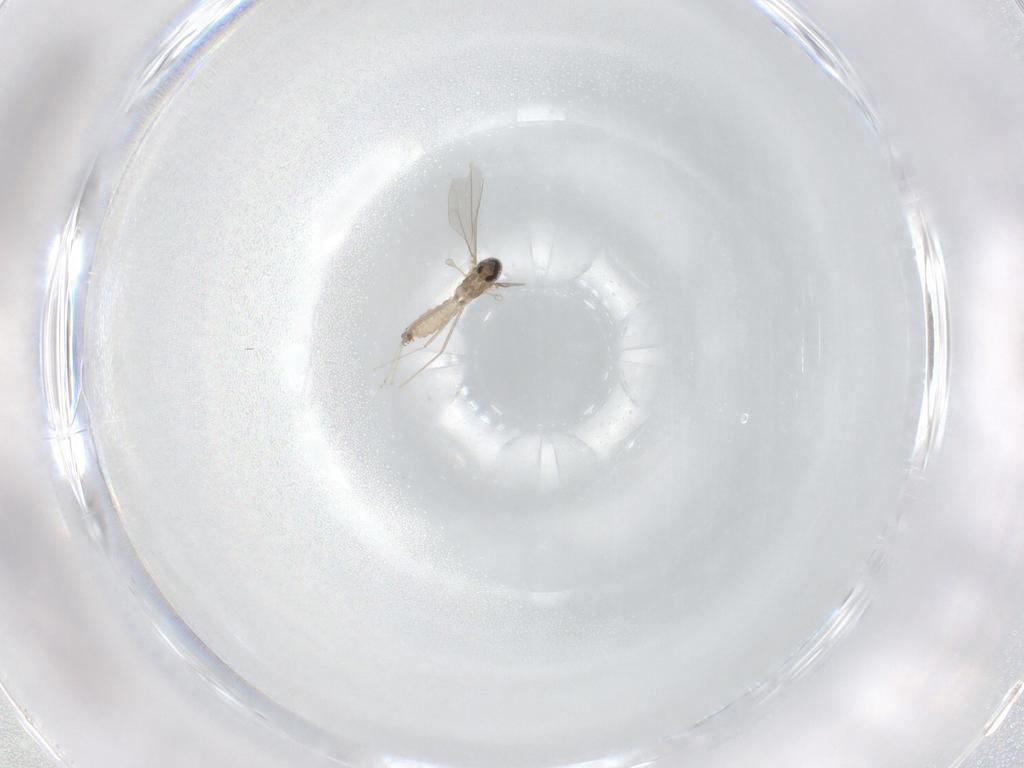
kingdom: Animalia
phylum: Arthropoda
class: Insecta
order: Diptera
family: Cecidomyiidae
